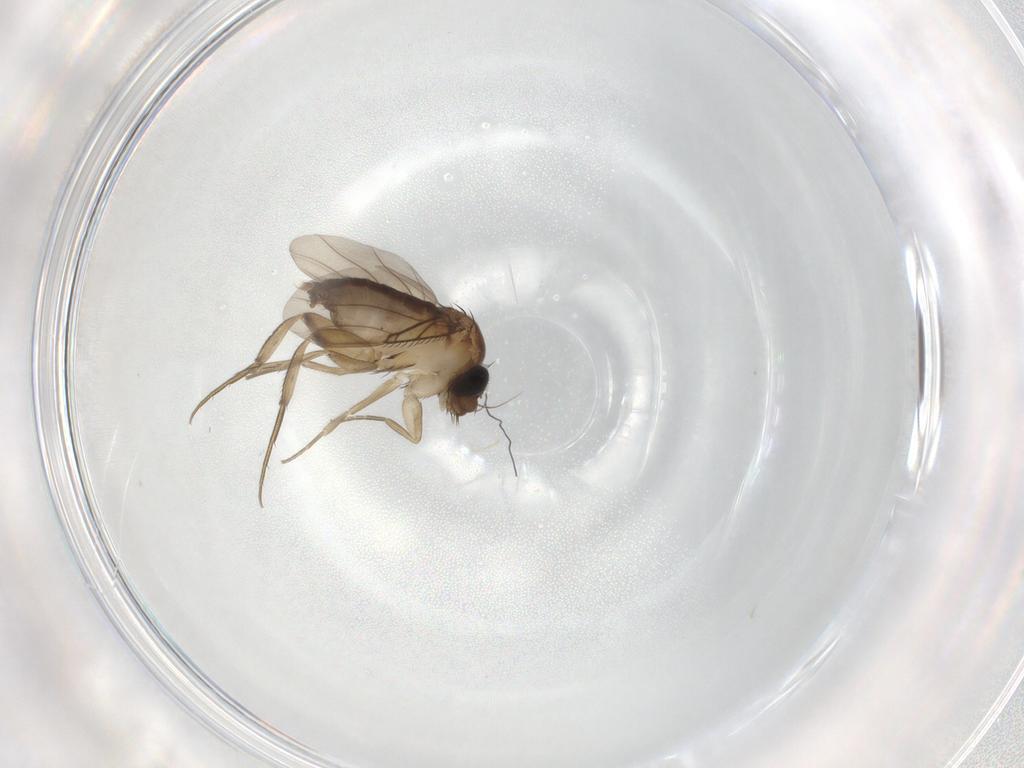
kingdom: Animalia
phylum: Arthropoda
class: Insecta
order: Diptera
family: Phoridae
